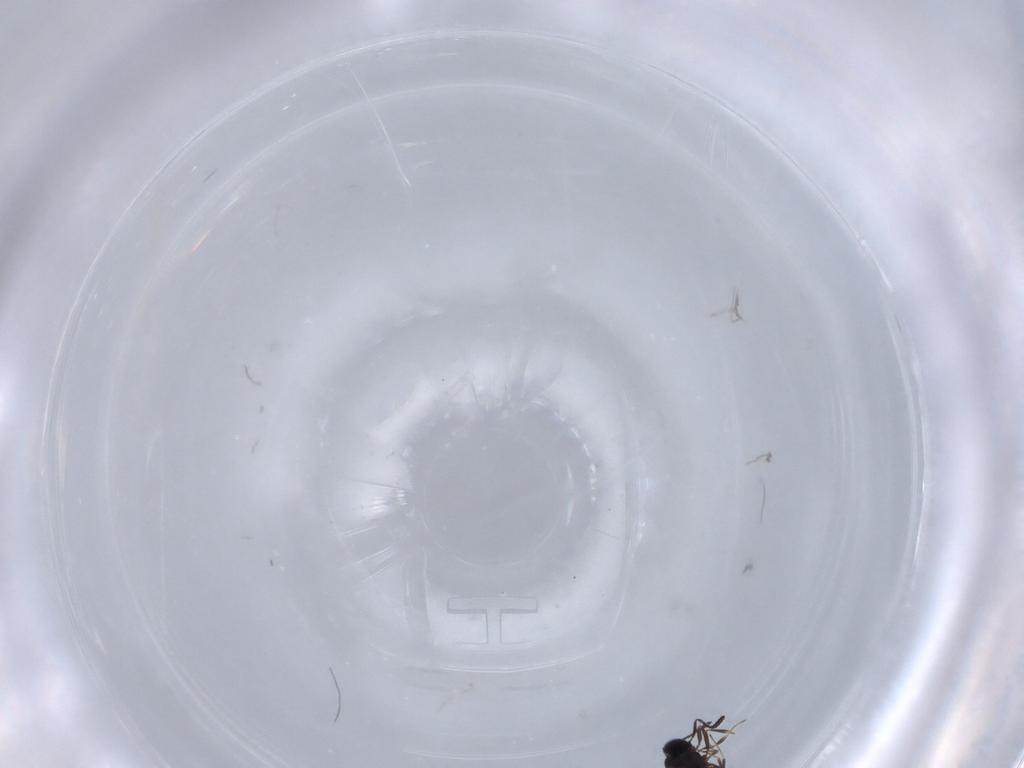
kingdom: Animalia
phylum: Arthropoda
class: Insecta
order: Hymenoptera
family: Scelionidae
